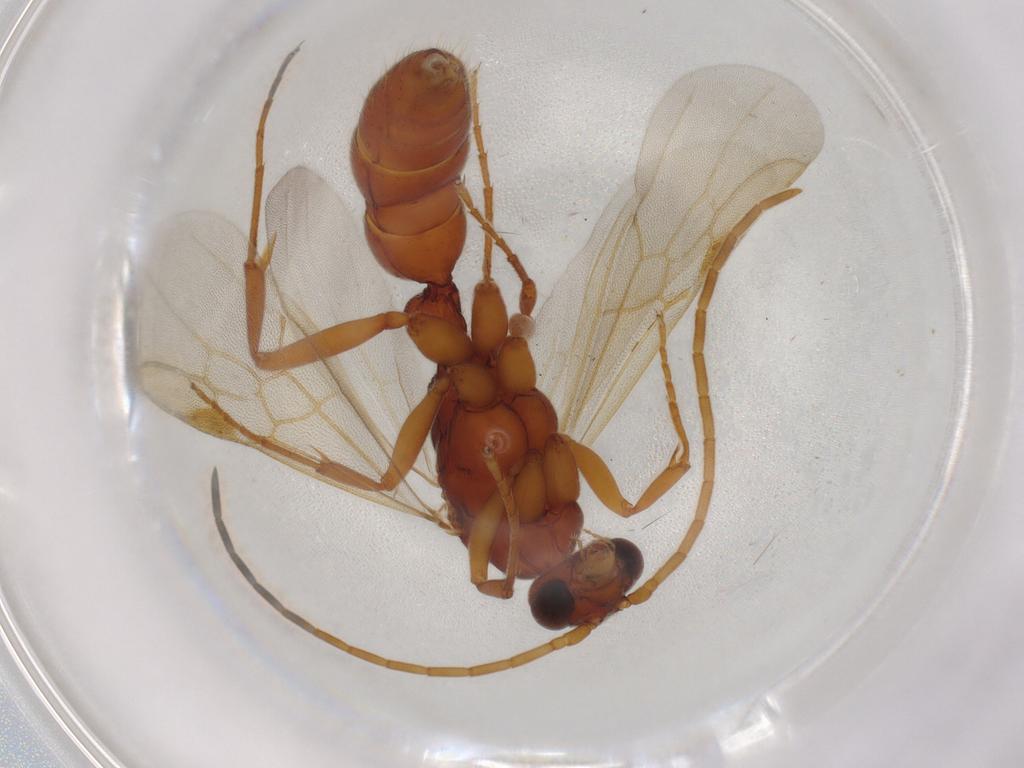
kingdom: Animalia
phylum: Arthropoda
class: Insecta
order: Hymenoptera
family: Formicidae
